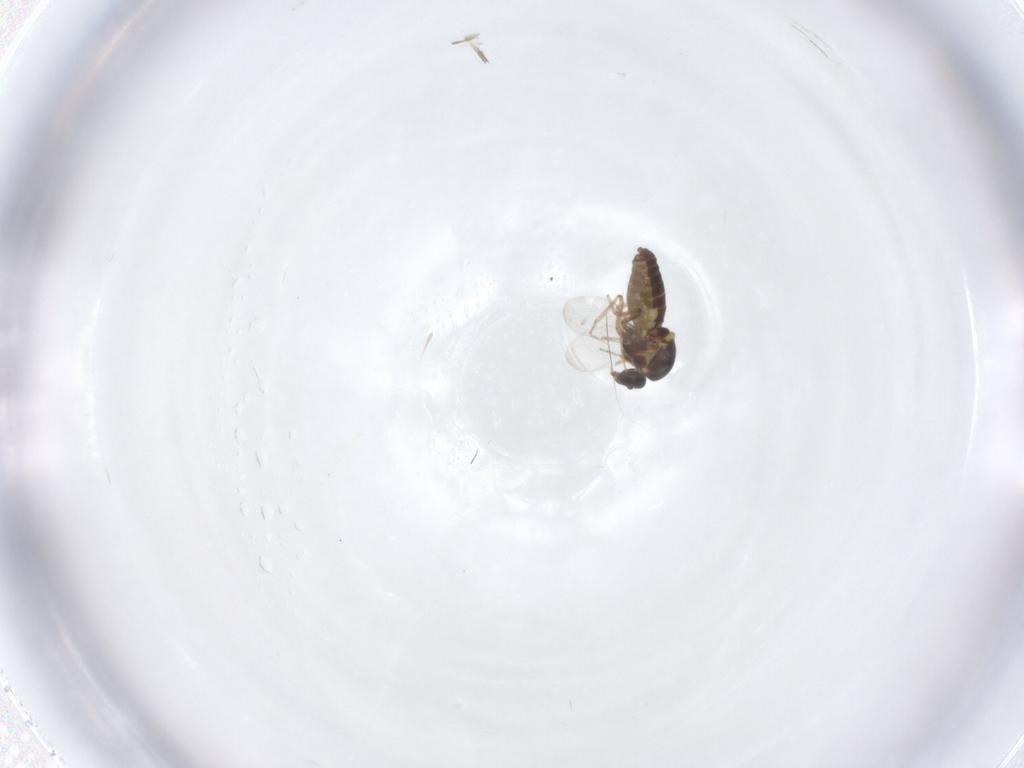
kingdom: Animalia
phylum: Arthropoda
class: Insecta
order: Diptera
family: Ceratopogonidae
